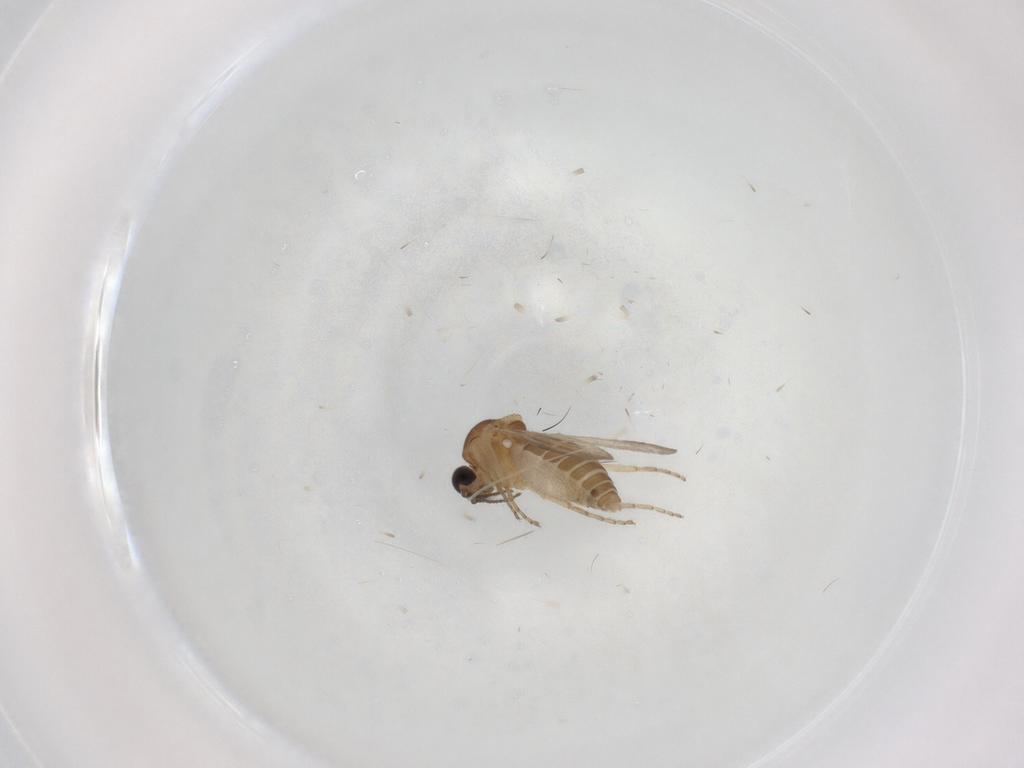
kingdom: Animalia
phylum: Arthropoda
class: Insecta
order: Diptera
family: Ceratopogonidae
